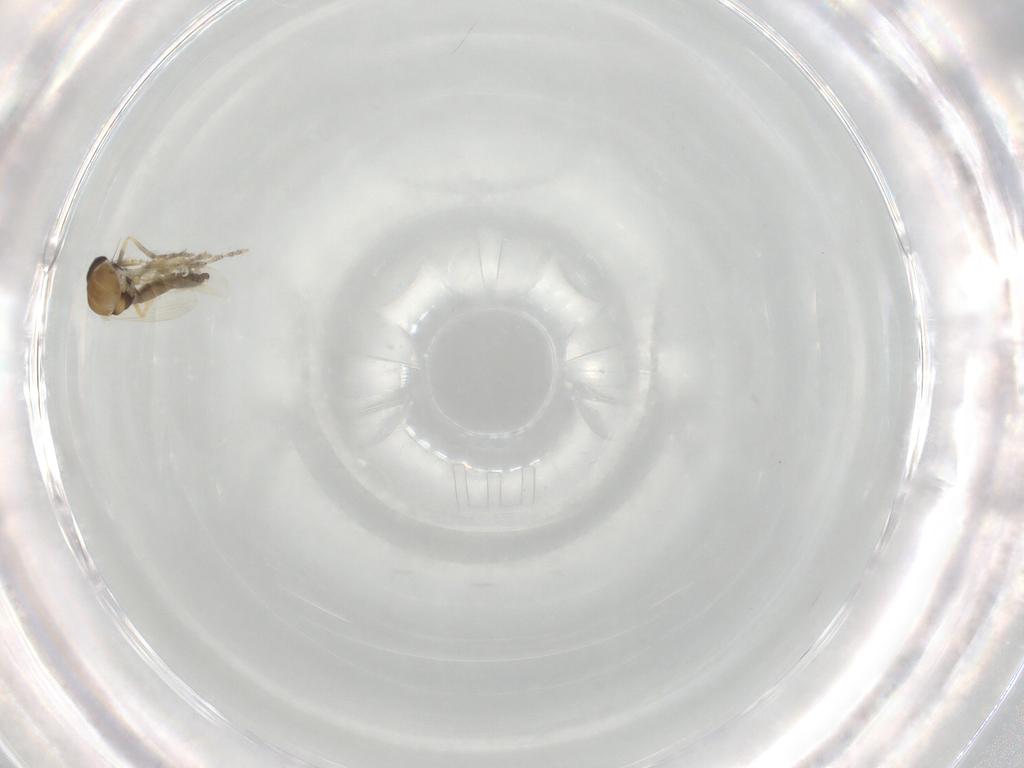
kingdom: Animalia
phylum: Arthropoda
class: Insecta
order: Diptera
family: Ceratopogonidae
